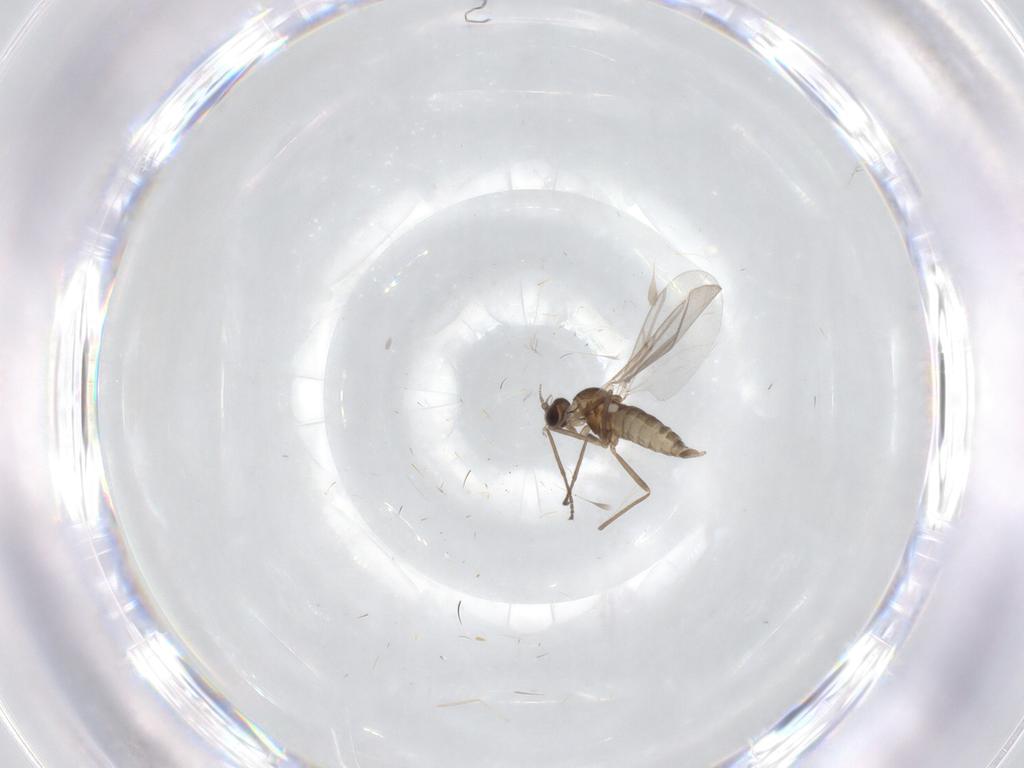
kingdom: Animalia
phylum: Arthropoda
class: Insecta
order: Diptera
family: Cecidomyiidae
